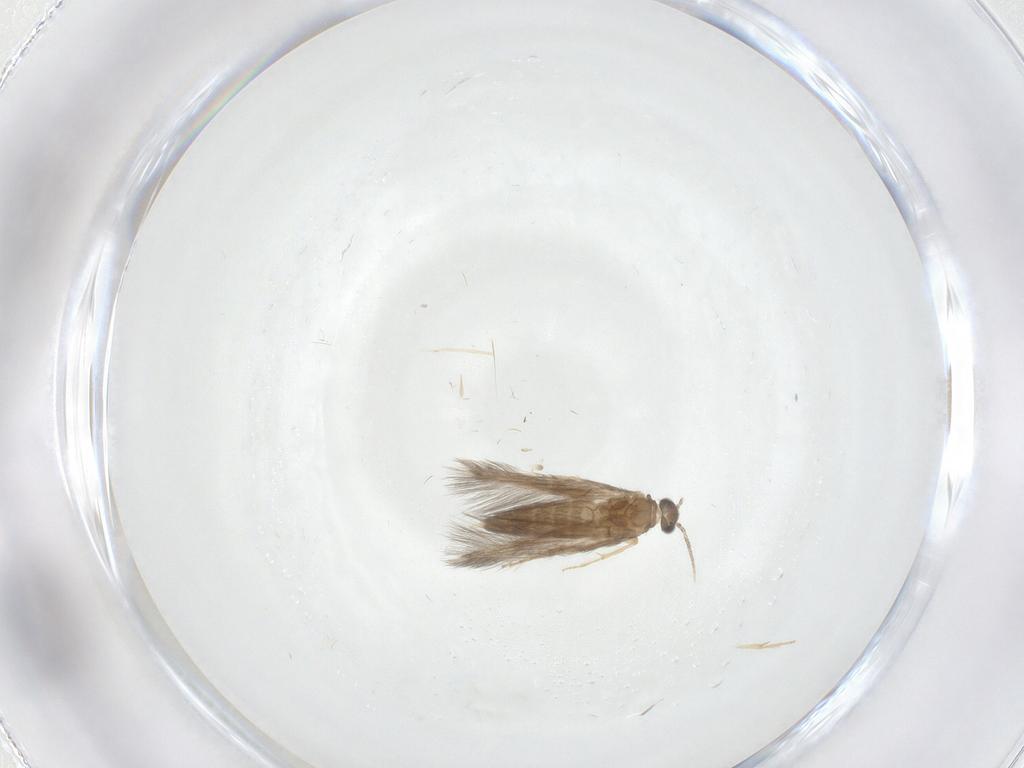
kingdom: Animalia
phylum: Arthropoda
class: Insecta
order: Trichoptera
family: Hydroptilidae
